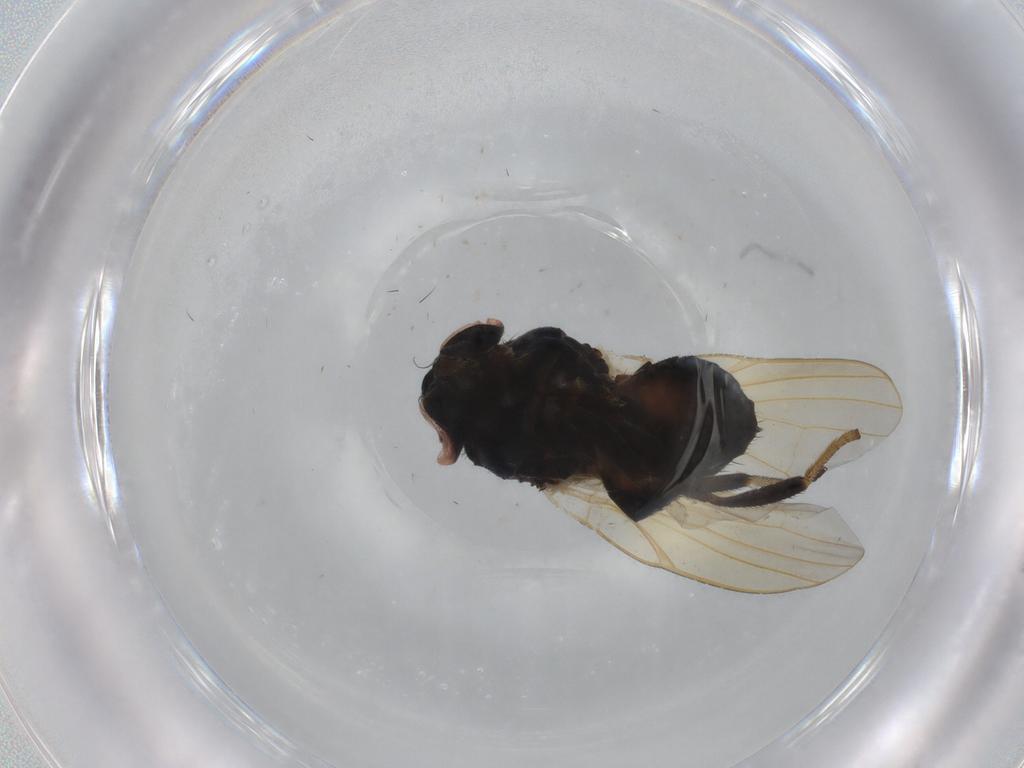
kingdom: Animalia
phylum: Arthropoda
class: Insecta
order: Diptera
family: Lonchaeidae
